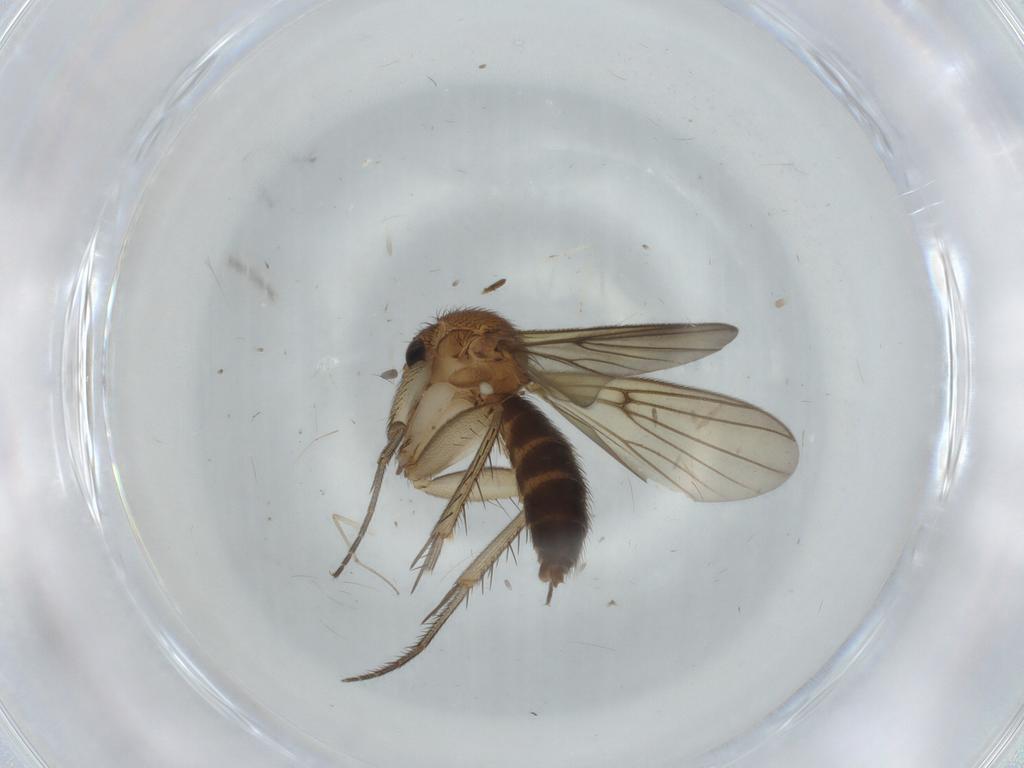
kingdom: Animalia
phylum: Arthropoda
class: Insecta
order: Diptera
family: Mycetophilidae
